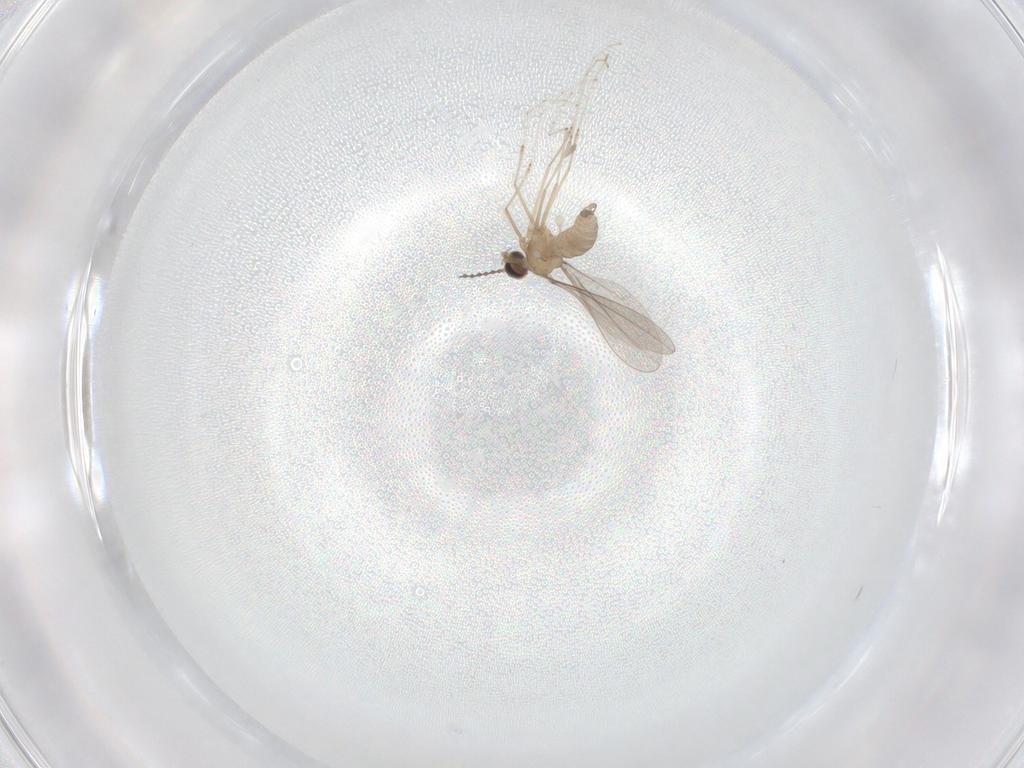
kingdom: Animalia
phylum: Arthropoda
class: Insecta
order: Diptera
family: Cecidomyiidae
